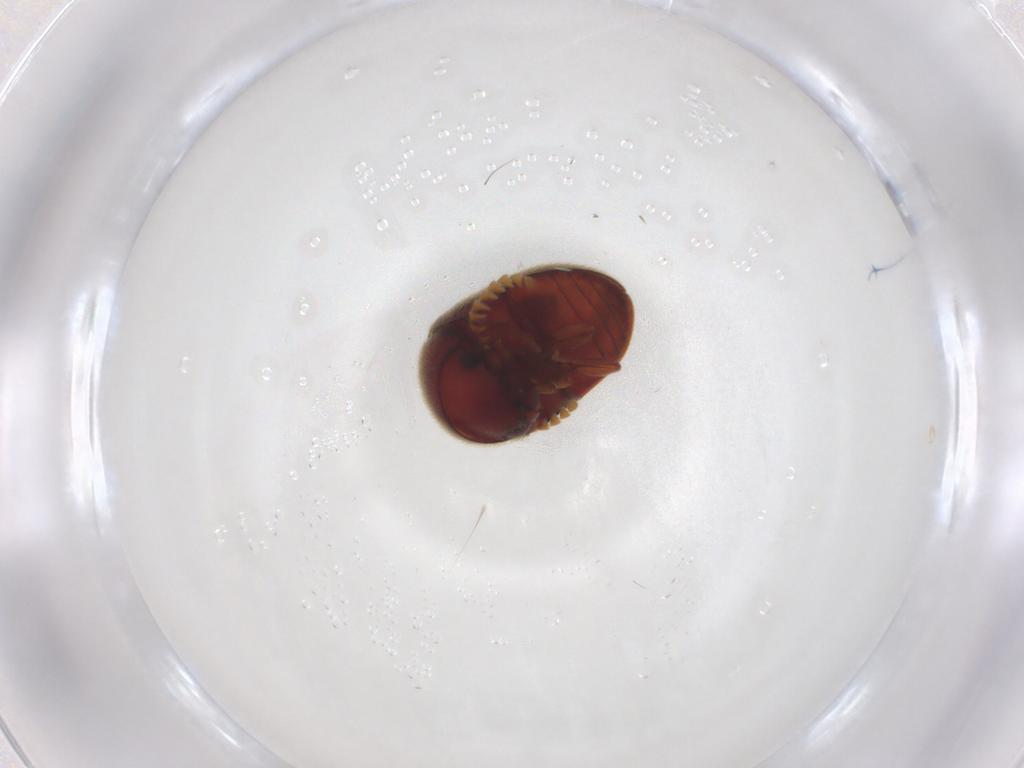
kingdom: Animalia
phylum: Arthropoda
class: Insecta
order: Coleoptera
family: Ptinidae
